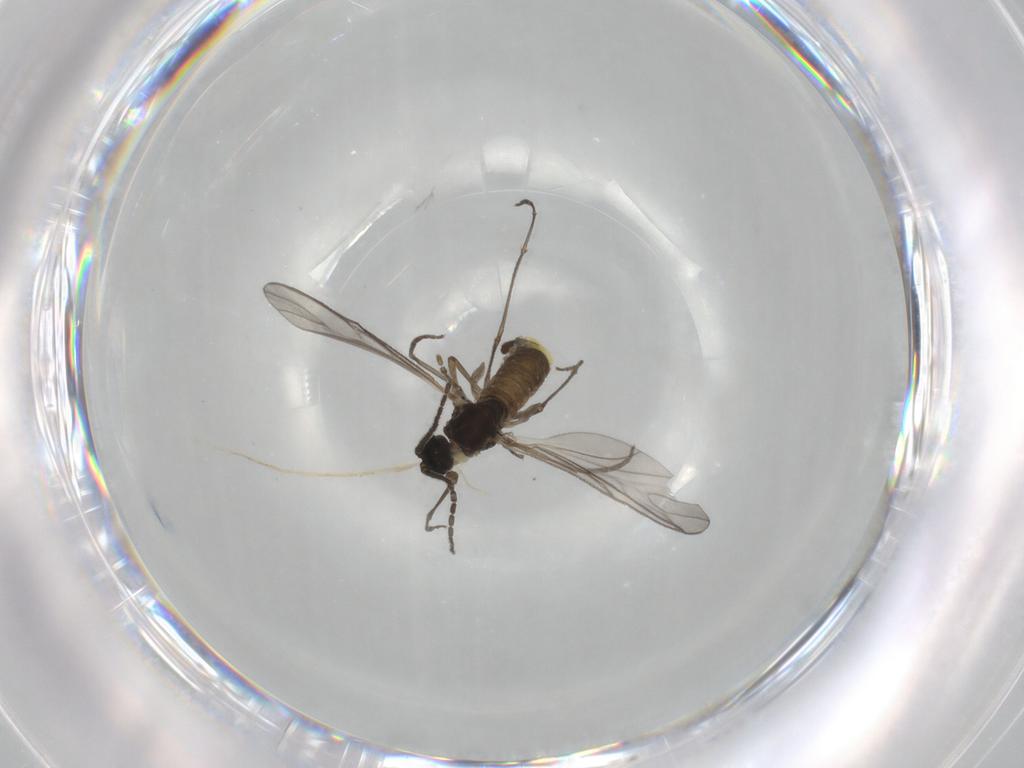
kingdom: Animalia
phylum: Arthropoda
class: Insecta
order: Diptera
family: Sciaridae
